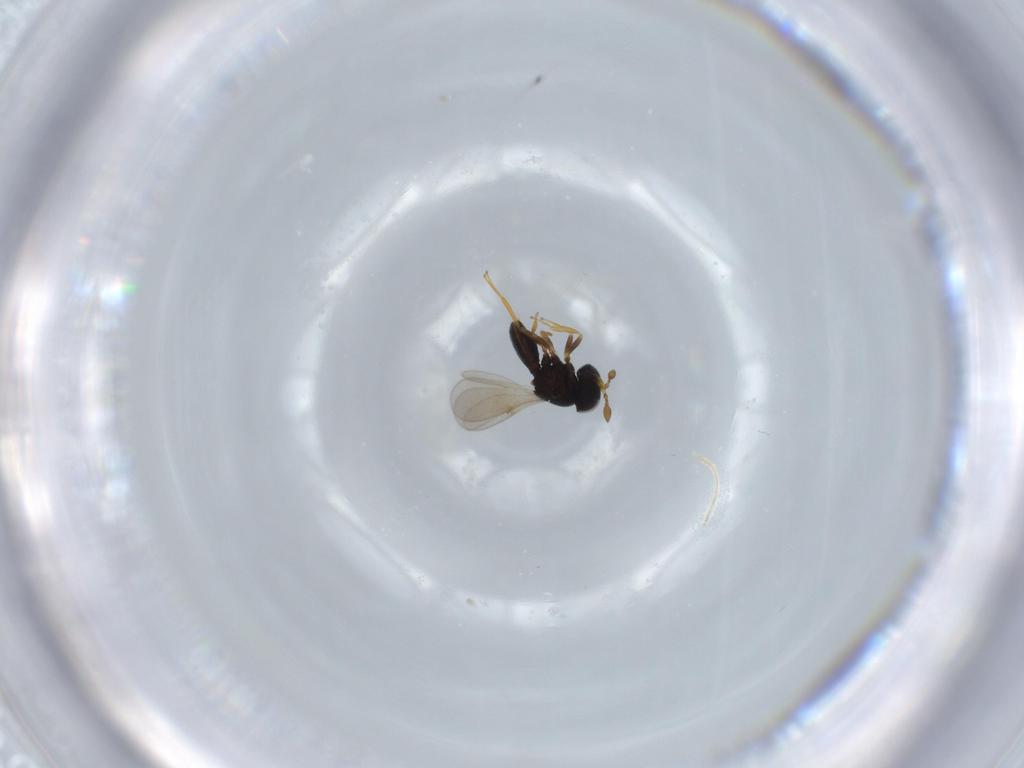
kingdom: Animalia
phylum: Arthropoda
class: Insecta
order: Hymenoptera
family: Scelionidae
